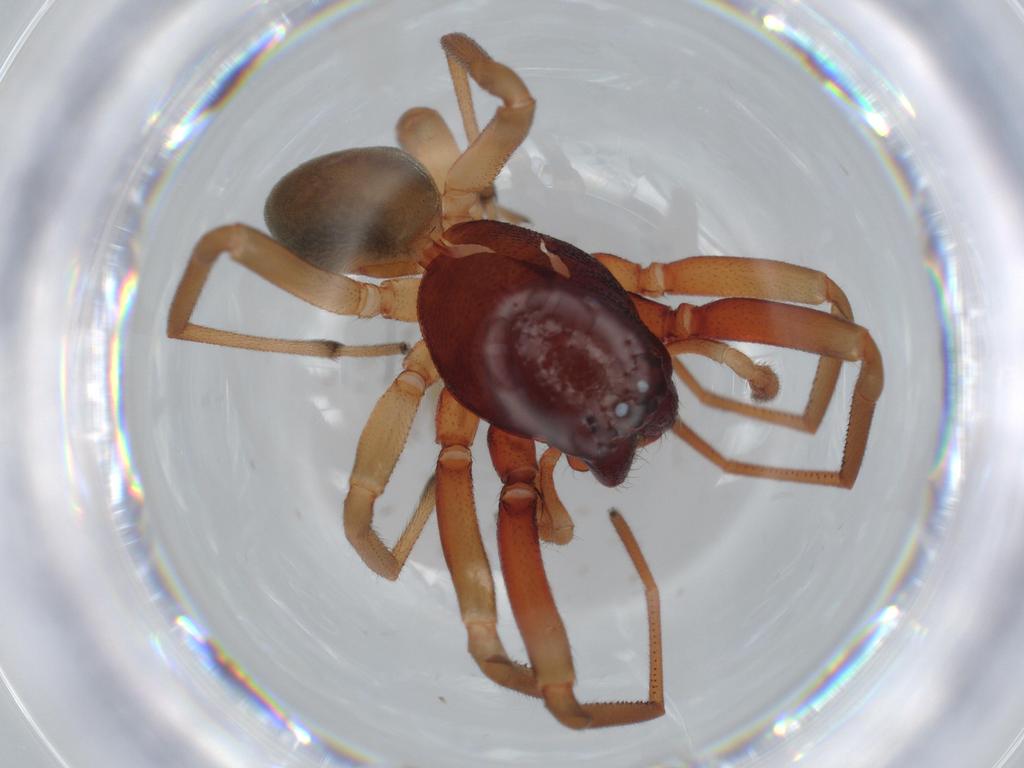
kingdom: Animalia
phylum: Arthropoda
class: Arachnida
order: Araneae
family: Trachelidae
